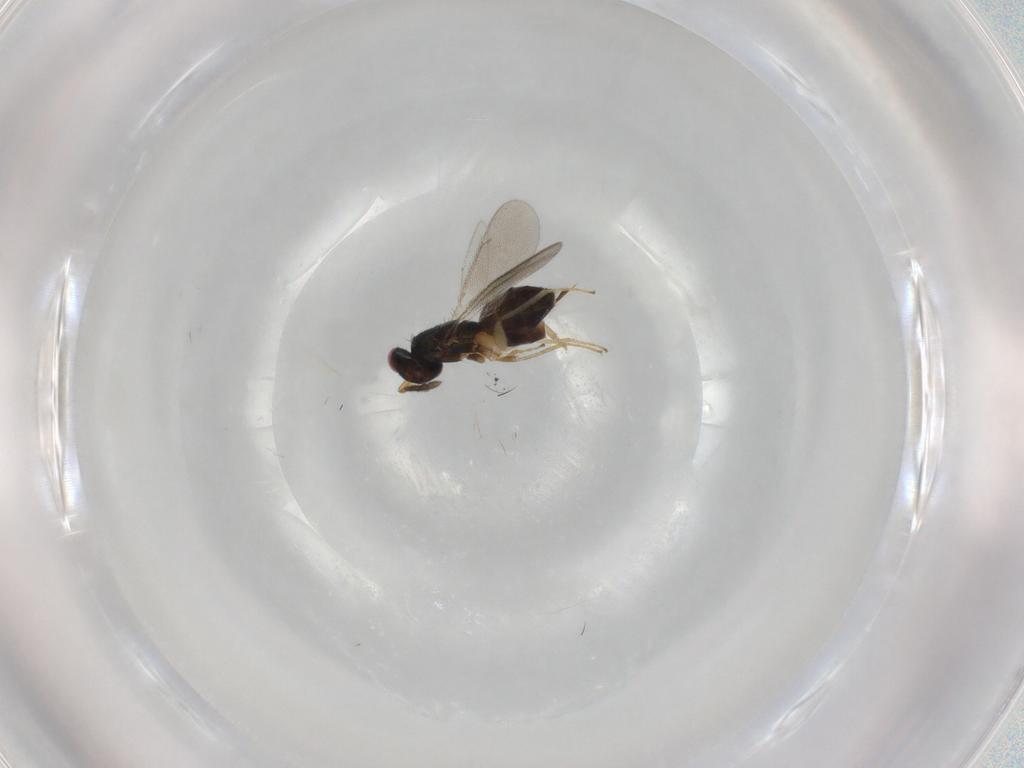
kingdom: Animalia
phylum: Arthropoda
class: Insecta
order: Hymenoptera
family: Eulophidae
